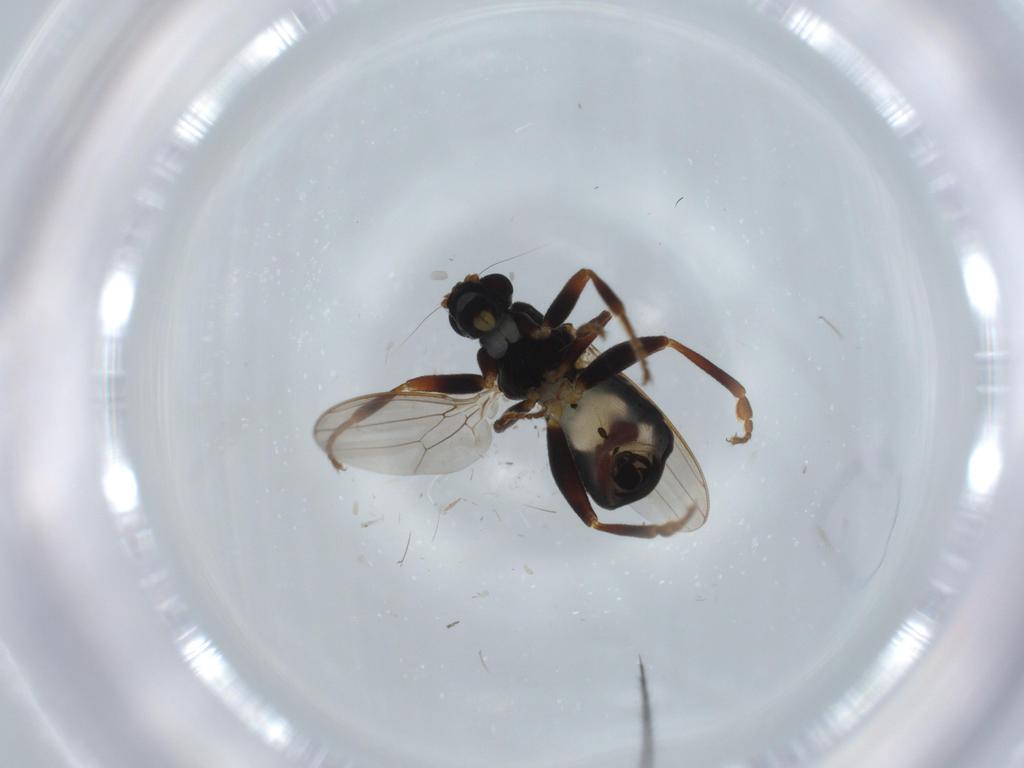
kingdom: Animalia
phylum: Arthropoda
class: Insecta
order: Diptera
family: Sphaeroceridae
